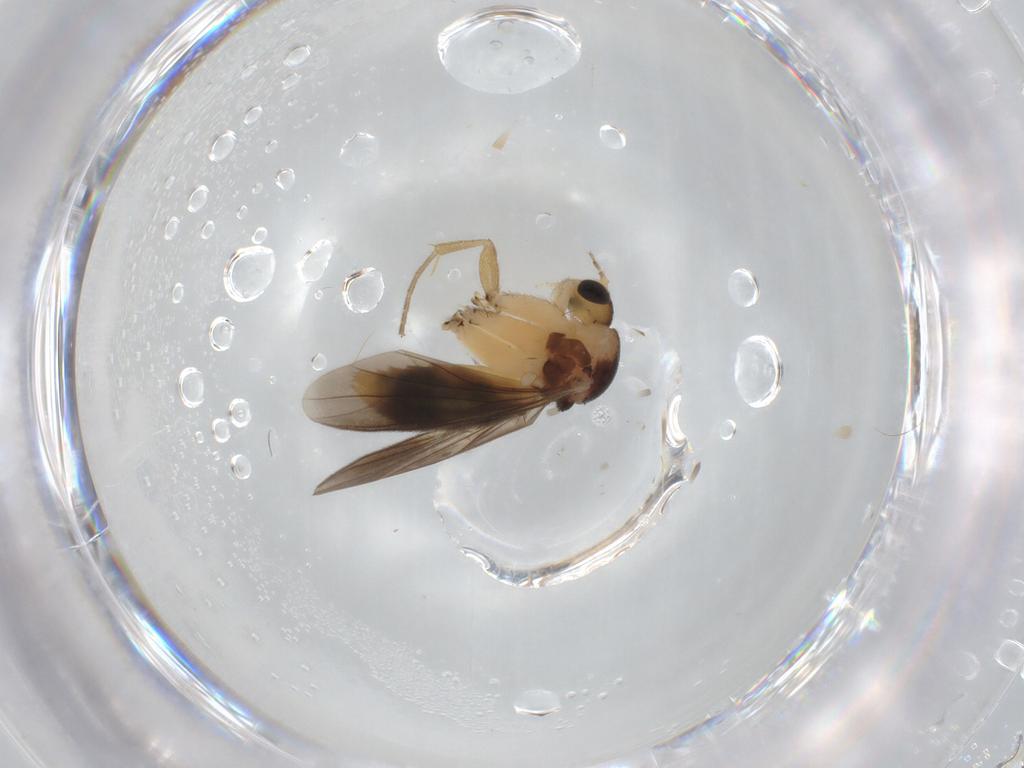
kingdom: Animalia
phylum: Arthropoda
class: Insecta
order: Diptera
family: Mycetophilidae
